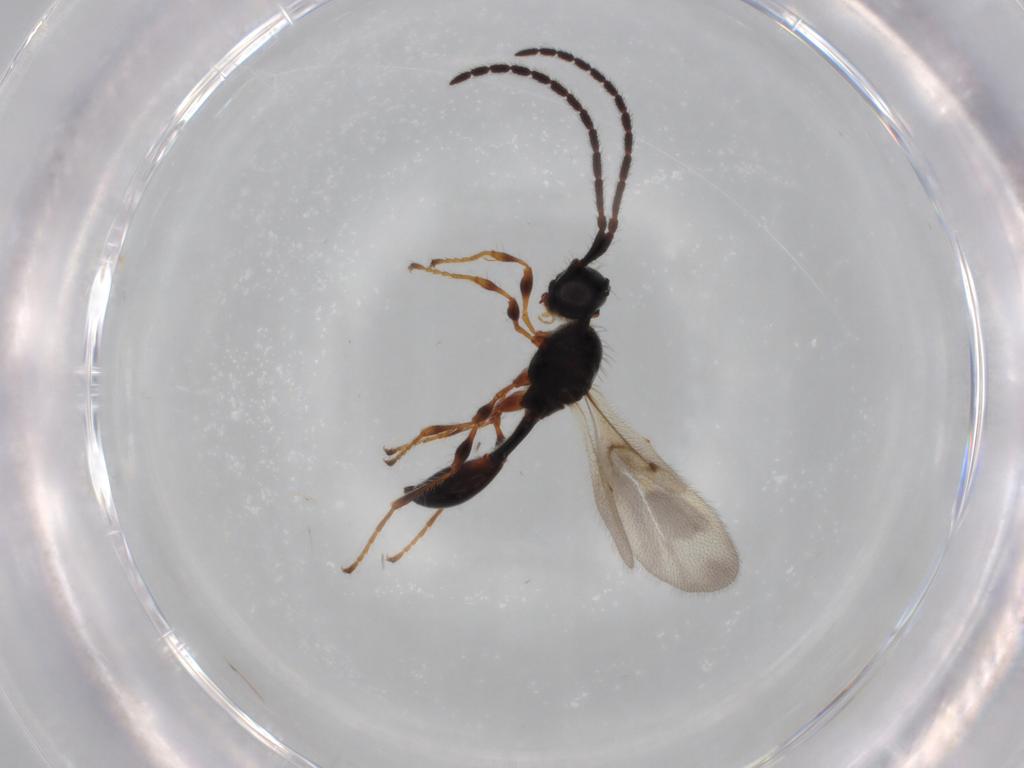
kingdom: Animalia
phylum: Arthropoda
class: Insecta
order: Hymenoptera
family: Diapriidae
